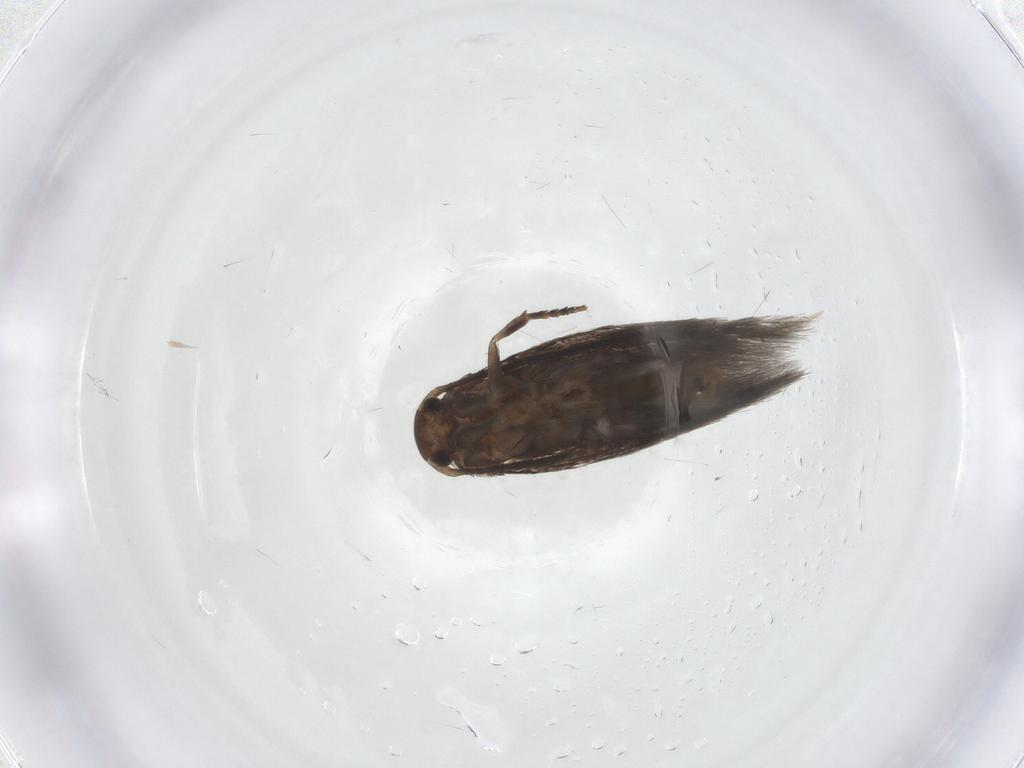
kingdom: Animalia
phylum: Arthropoda
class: Insecta
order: Lepidoptera
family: Elachistidae
